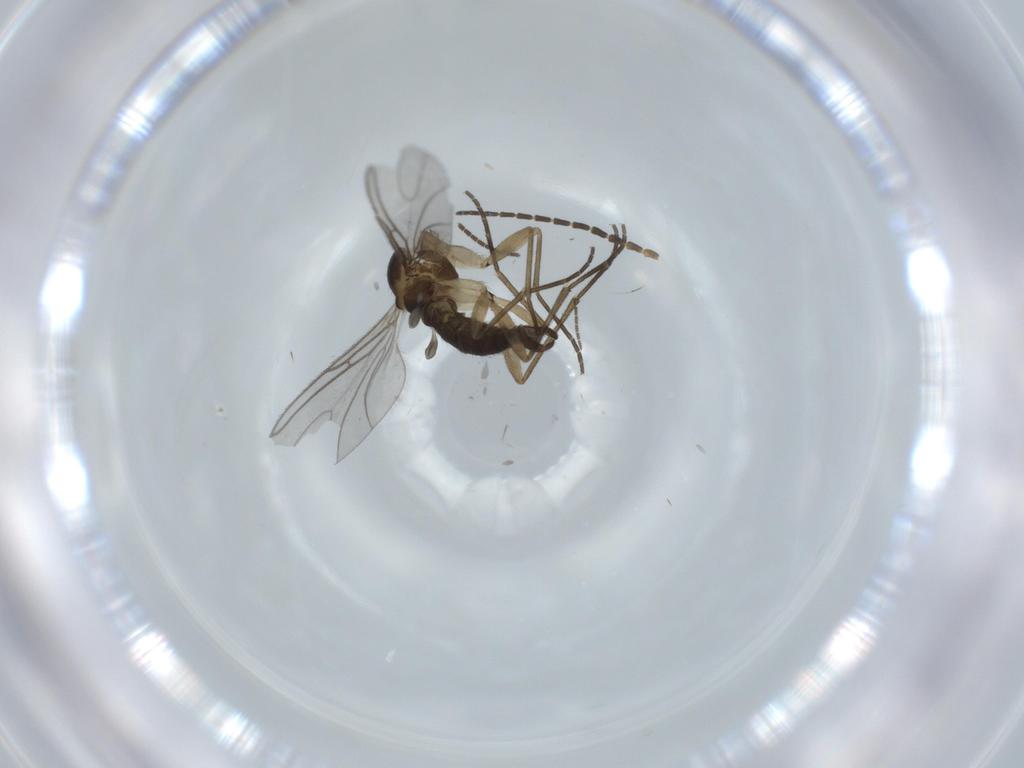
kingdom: Animalia
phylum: Arthropoda
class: Insecta
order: Diptera
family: Sciaridae
